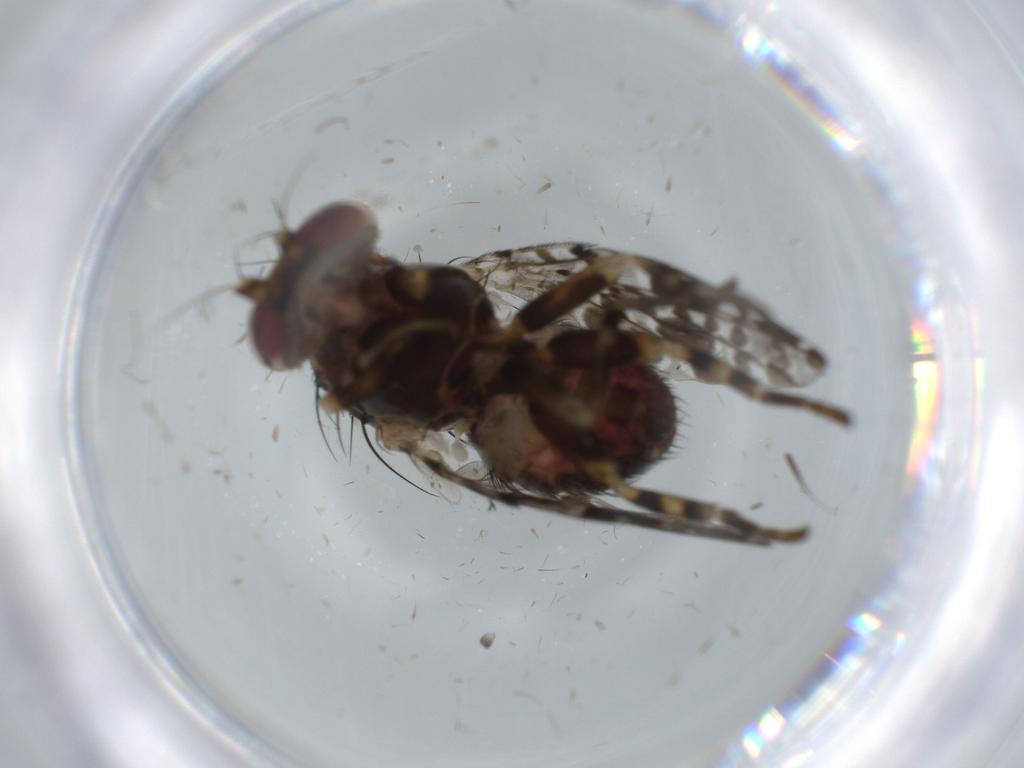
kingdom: Animalia
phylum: Arthropoda
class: Insecta
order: Diptera
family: Odiniidae
